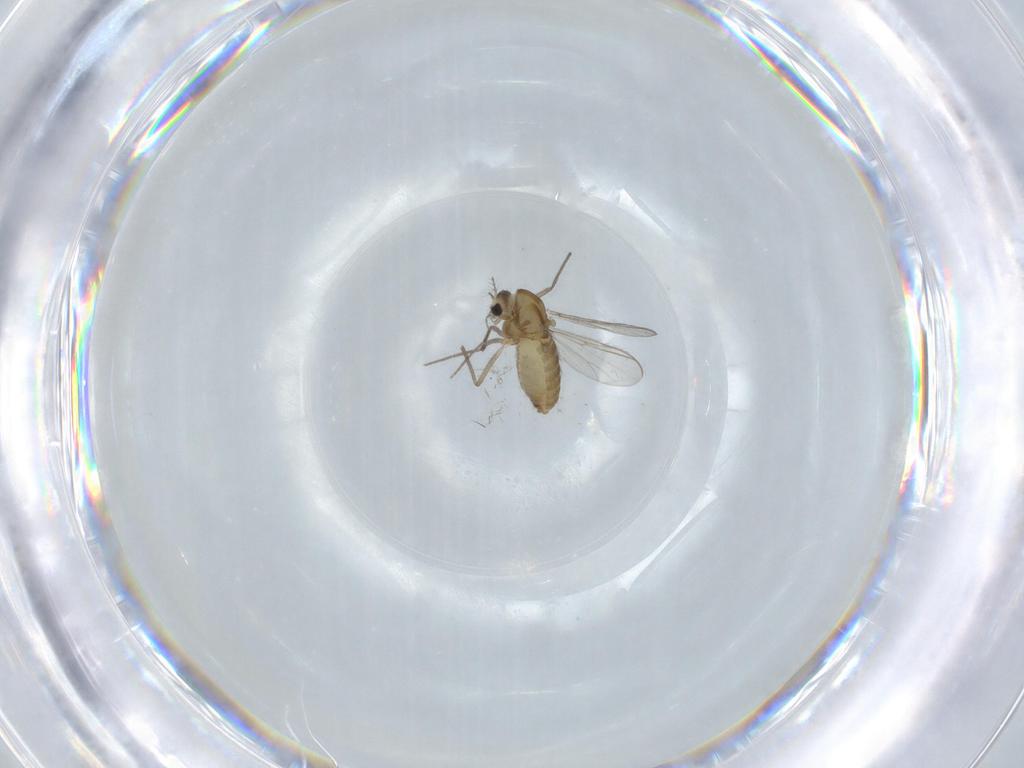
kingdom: Animalia
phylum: Arthropoda
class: Insecta
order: Diptera
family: Chironomidae
